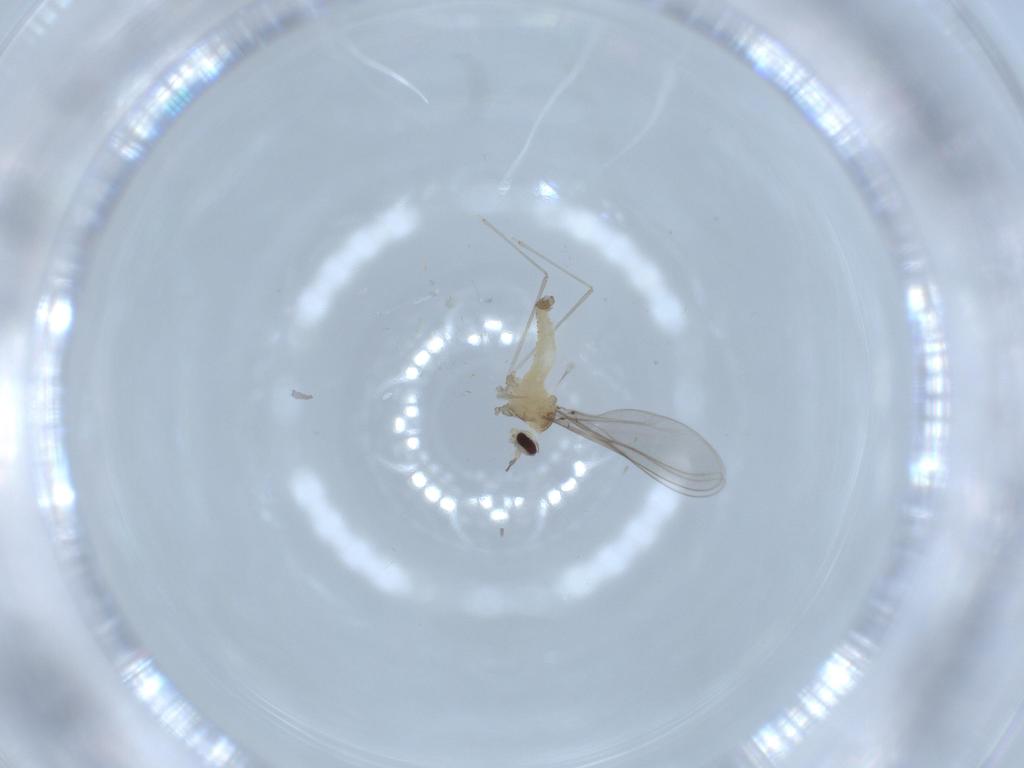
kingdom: Animalia
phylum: Arthropoda
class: Insecta
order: Diptera
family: Cecidomyiidae
